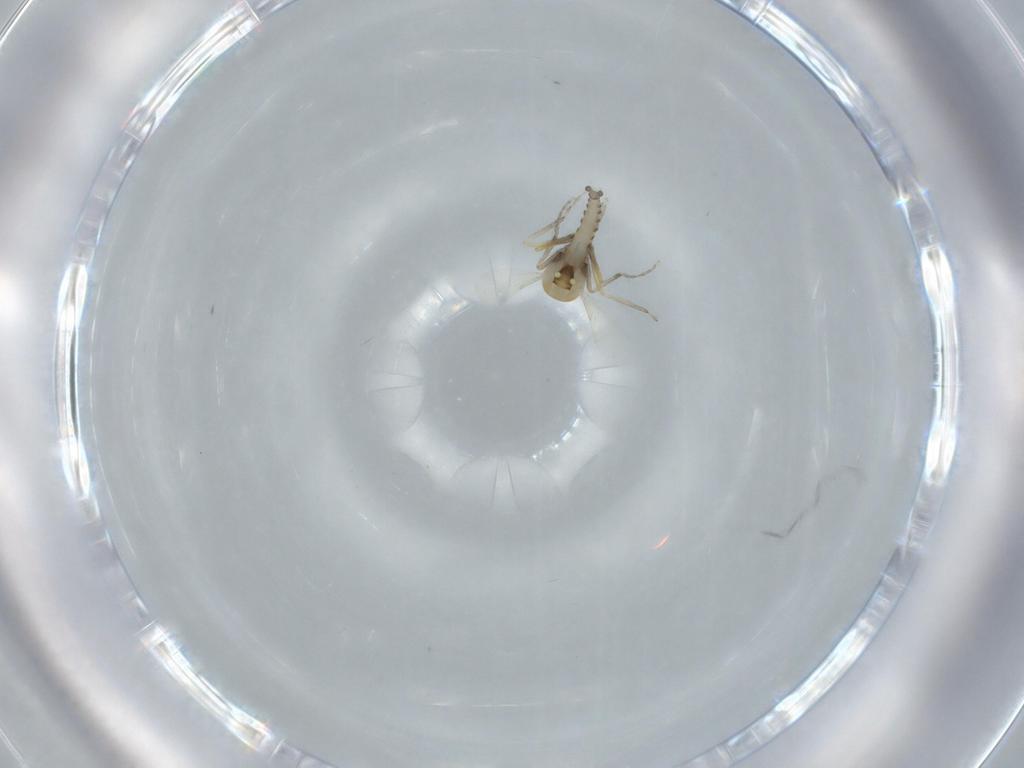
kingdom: Animalia
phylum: Arthropoda
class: Insecta
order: Diptera
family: Ceratopogonidae
